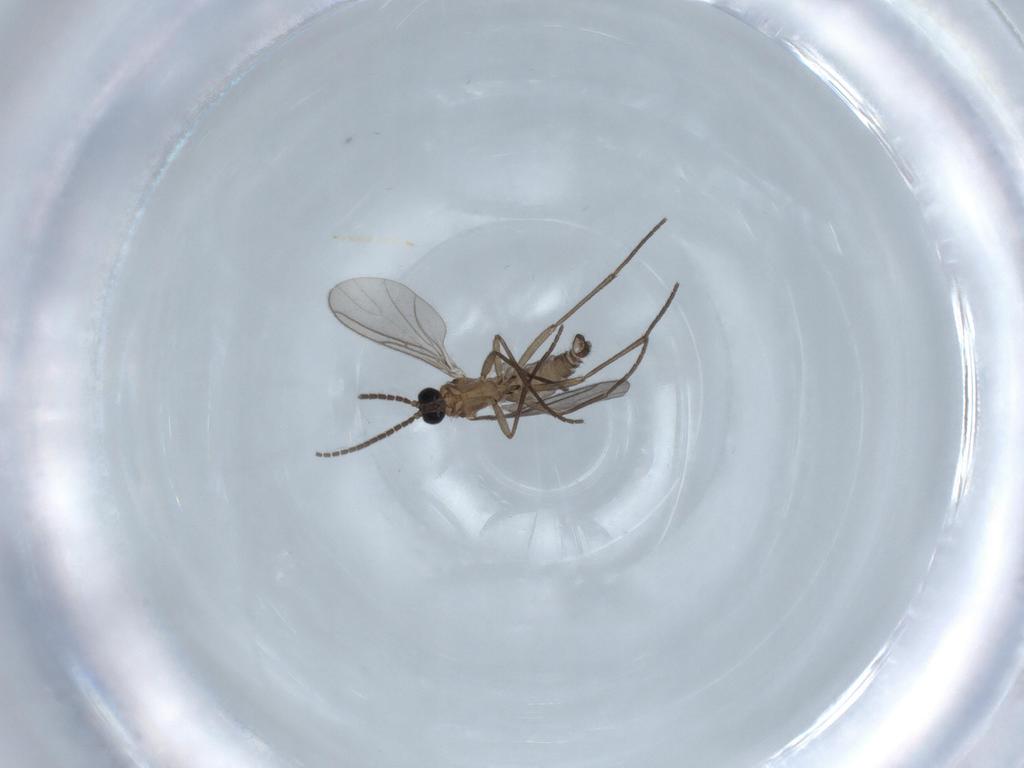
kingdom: Animalia
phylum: Arthropoda
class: Insecta
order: Diptera
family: Sciaridae
